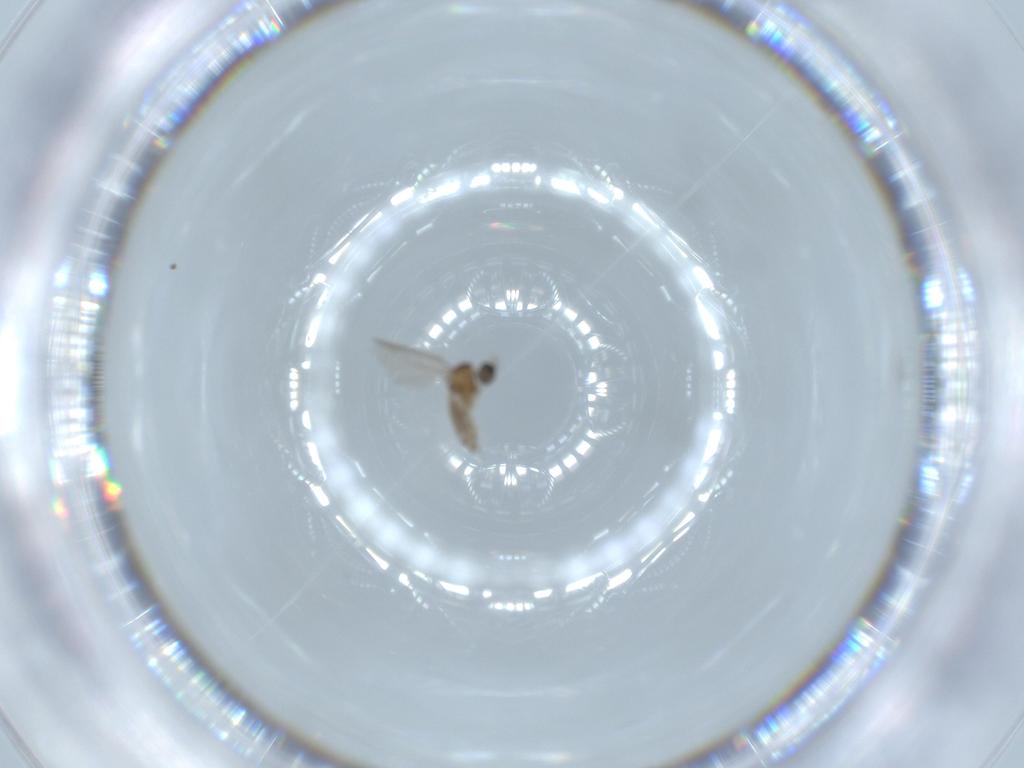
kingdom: Animalia
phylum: Arthropoda
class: Insecta
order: Diptera
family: Cecidomyiidae
